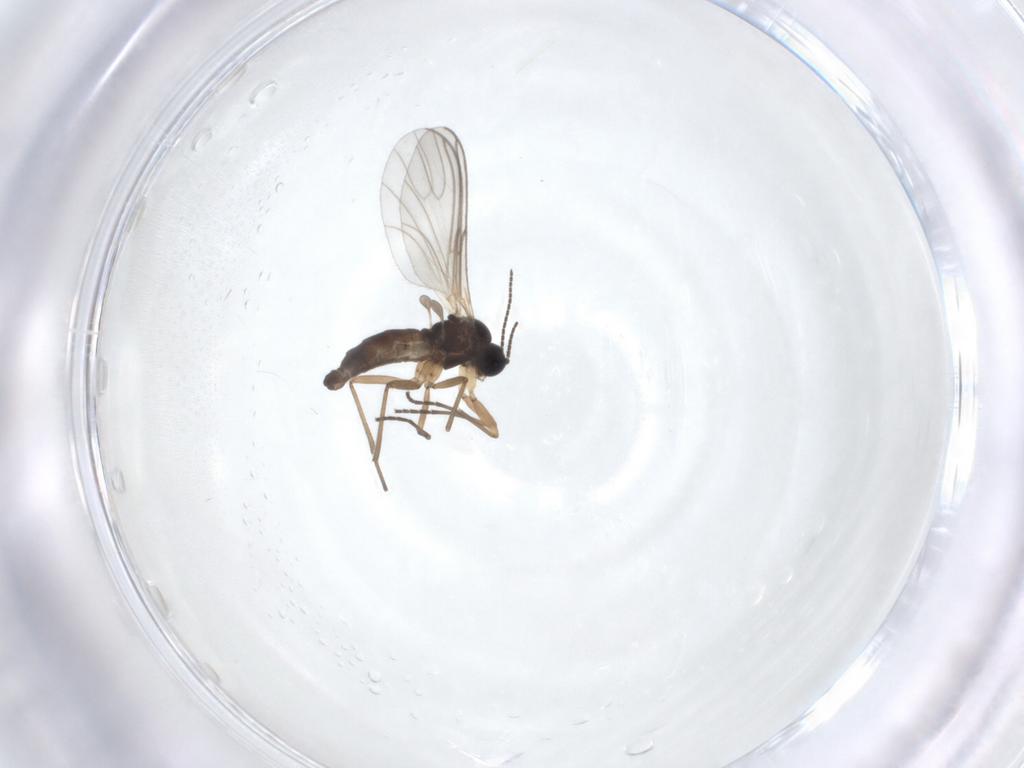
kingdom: Animalia
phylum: Arthropoda
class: Insecta
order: Diptera
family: Sciaridae
